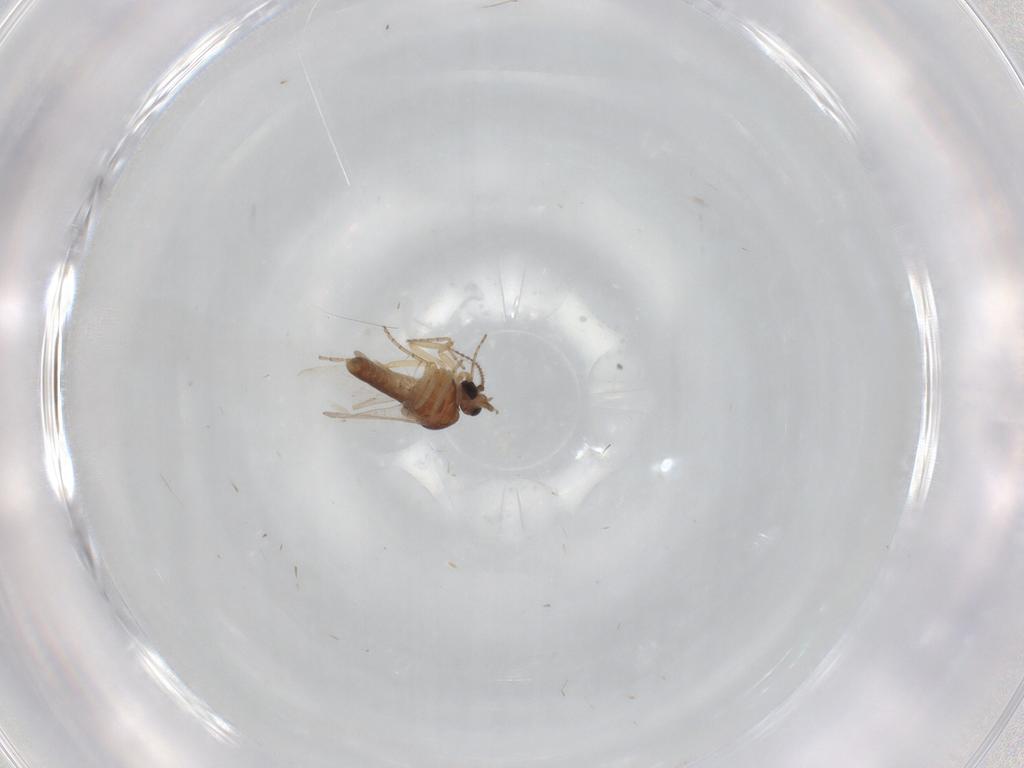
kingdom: Animalia
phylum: Arthropoda
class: Insecta
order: Diptera
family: Ceratopogonidae
